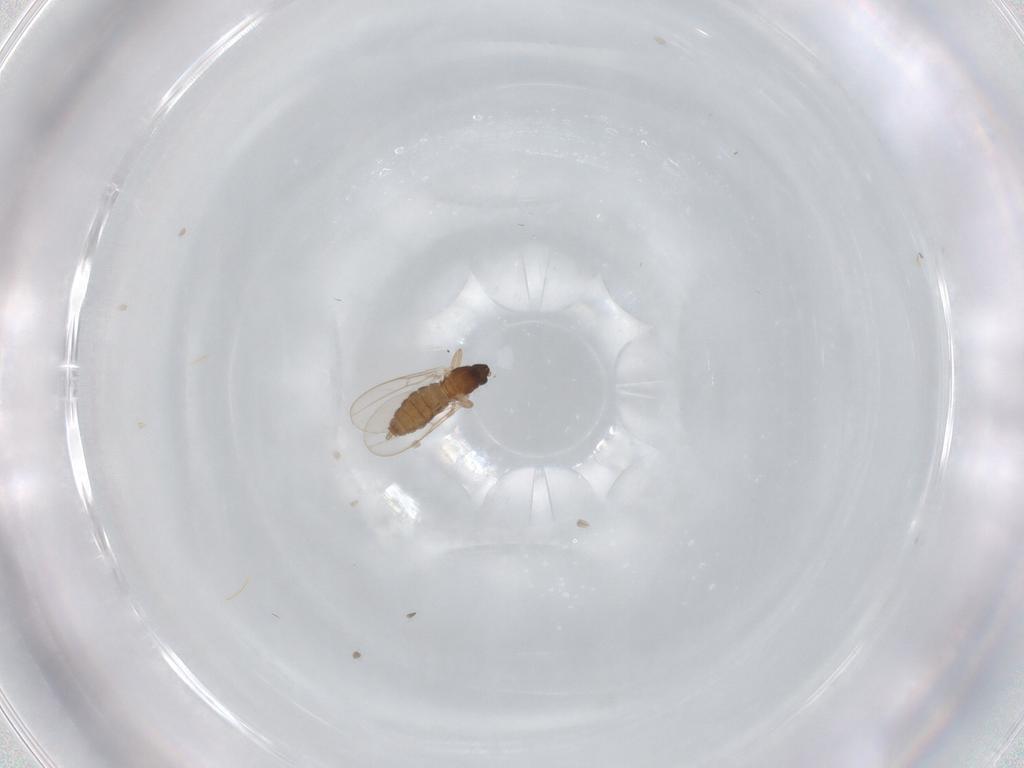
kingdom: Animalia
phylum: Arthropoda
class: Insecta
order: Diptera
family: Cecidomyiidae
